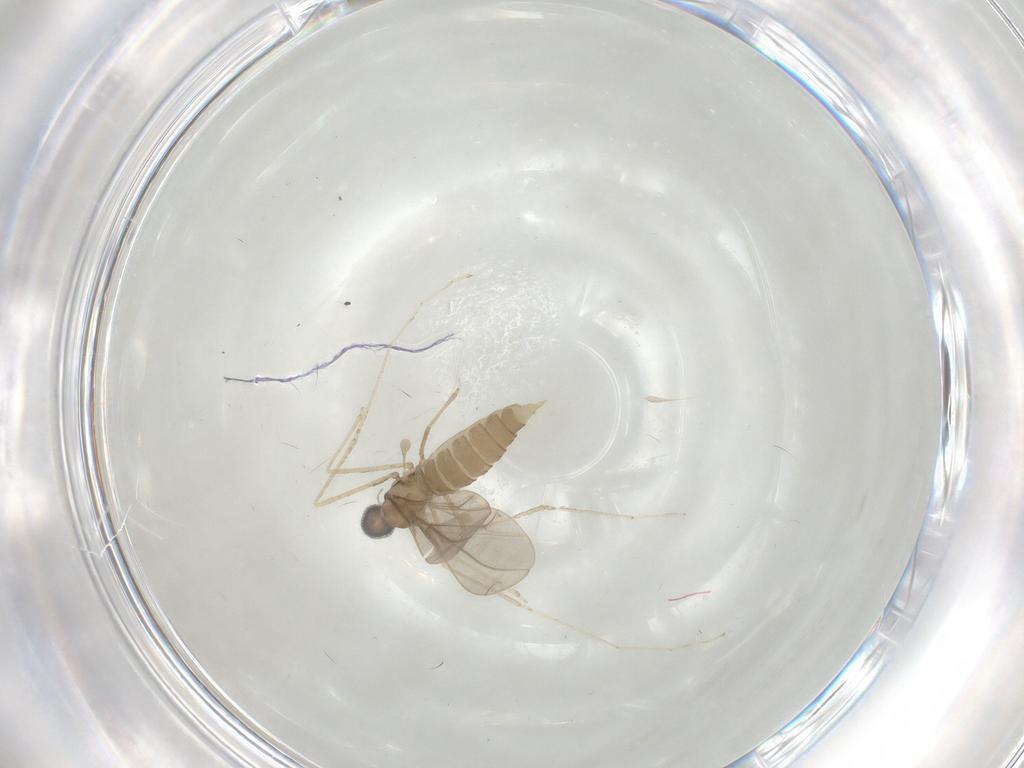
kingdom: Animalia
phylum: Arthropoda
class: Insecta
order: Diptera
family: Cecidomyiidae
